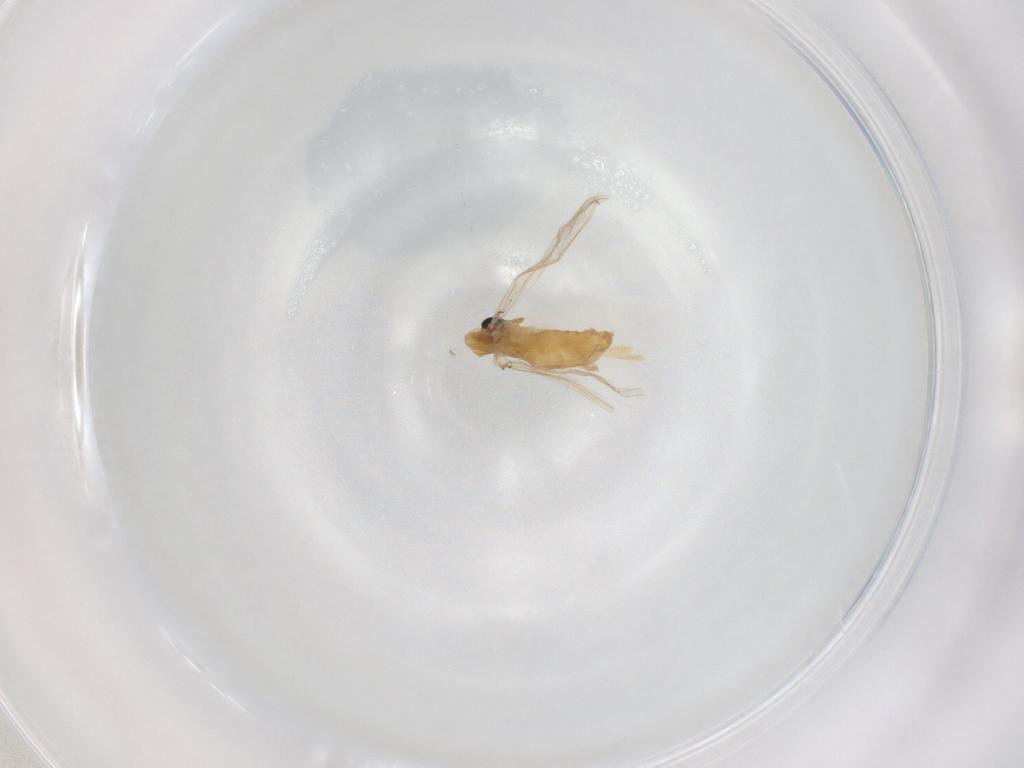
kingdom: Animalia
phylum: Arthropoda
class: Insecta
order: Diptera
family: Glossinidae
